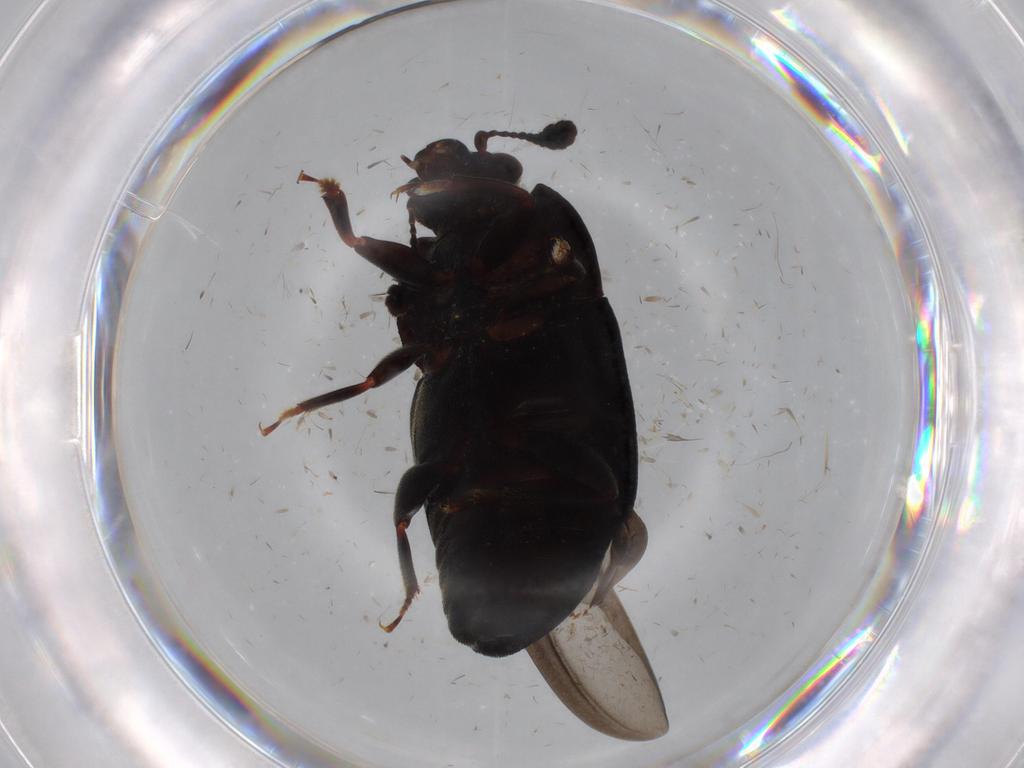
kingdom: Animalia
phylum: Arthropoda
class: Insecta
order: Coleoptera
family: Nitidulidae
